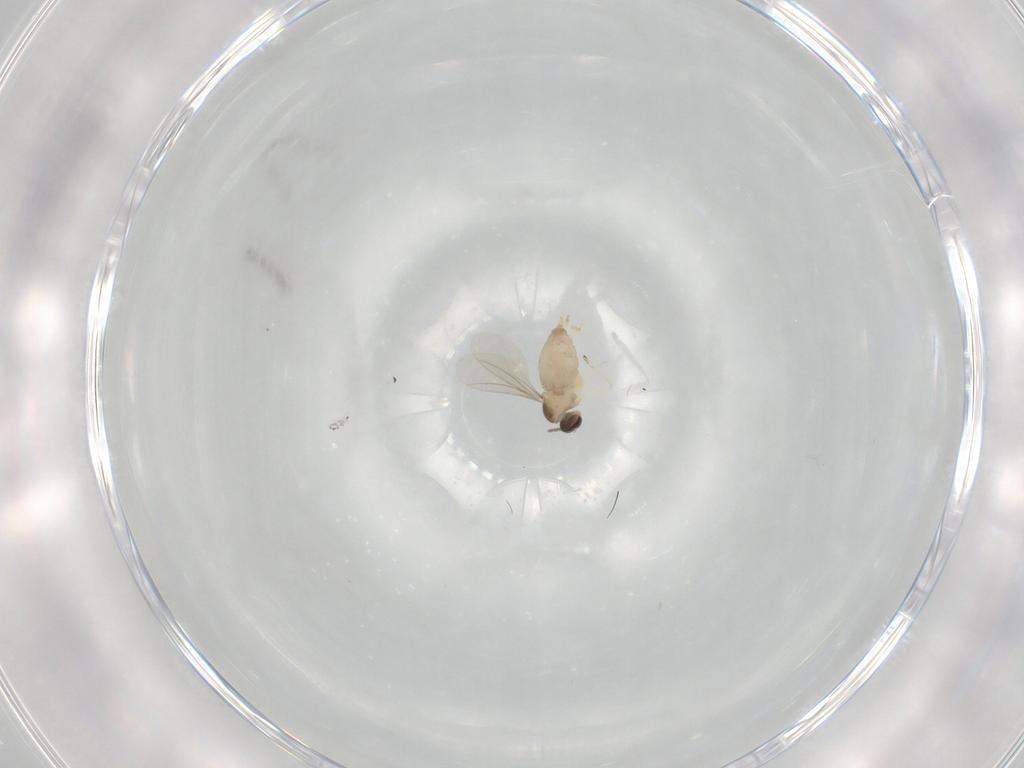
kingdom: Animalia
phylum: Arthropoda
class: Insecta
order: Diptera
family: Cecidomyiidae
